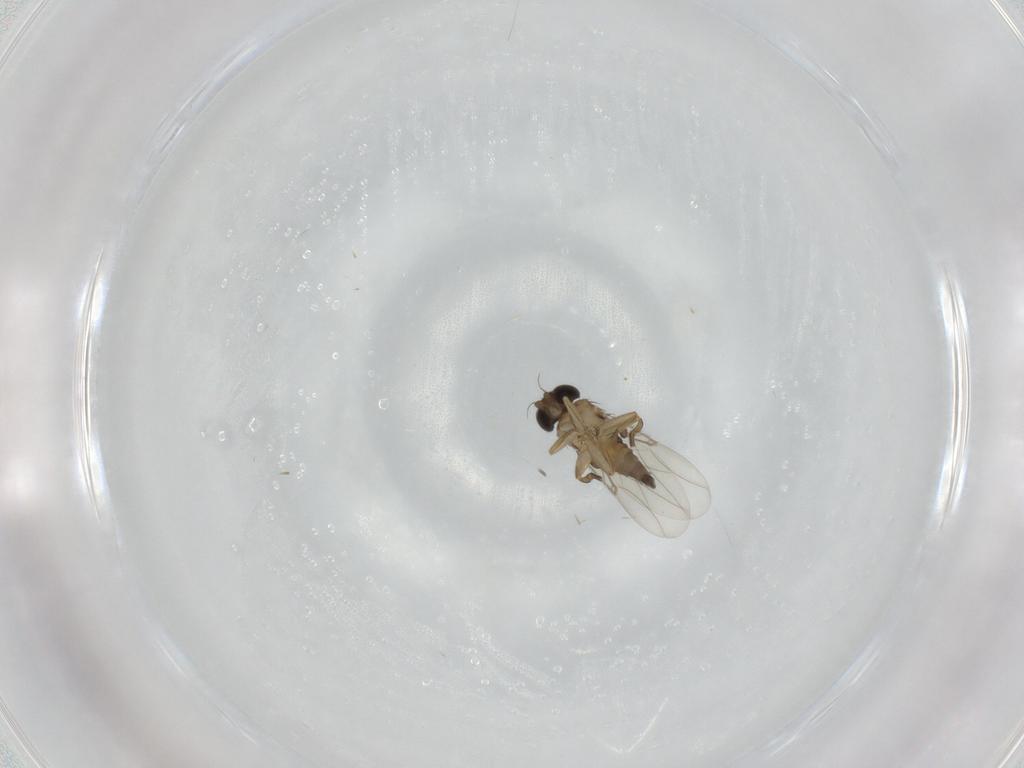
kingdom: Animalia
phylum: Arthropoda
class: Insecta
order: Diptera
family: Phoridae
